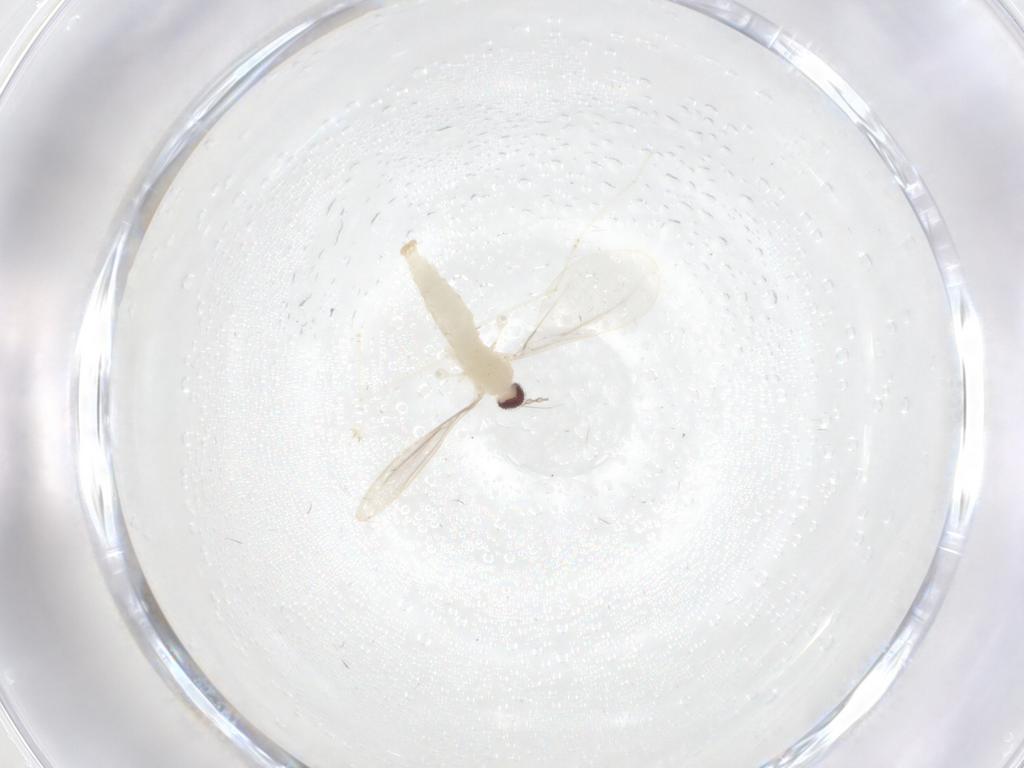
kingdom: Animalia
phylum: Arthropoda
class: Insecta
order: Diptera
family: Cecidomyiidae
